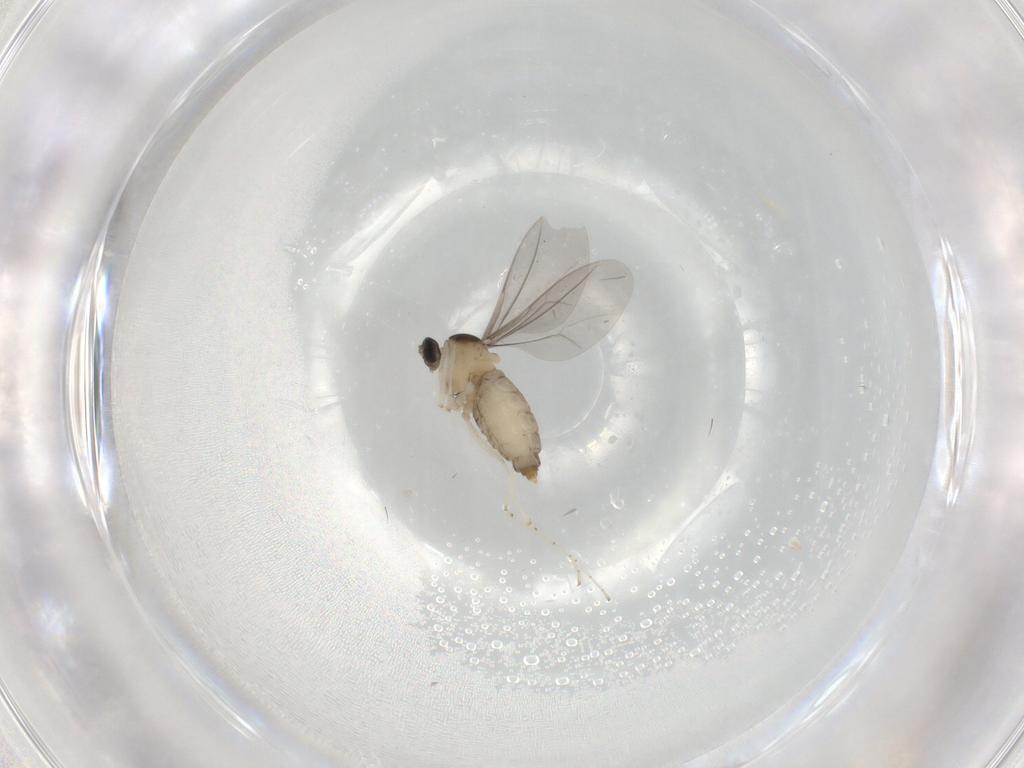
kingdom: Animalia
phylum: Arthropoda
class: Insecta
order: Diptera
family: Cecidomyiidae
